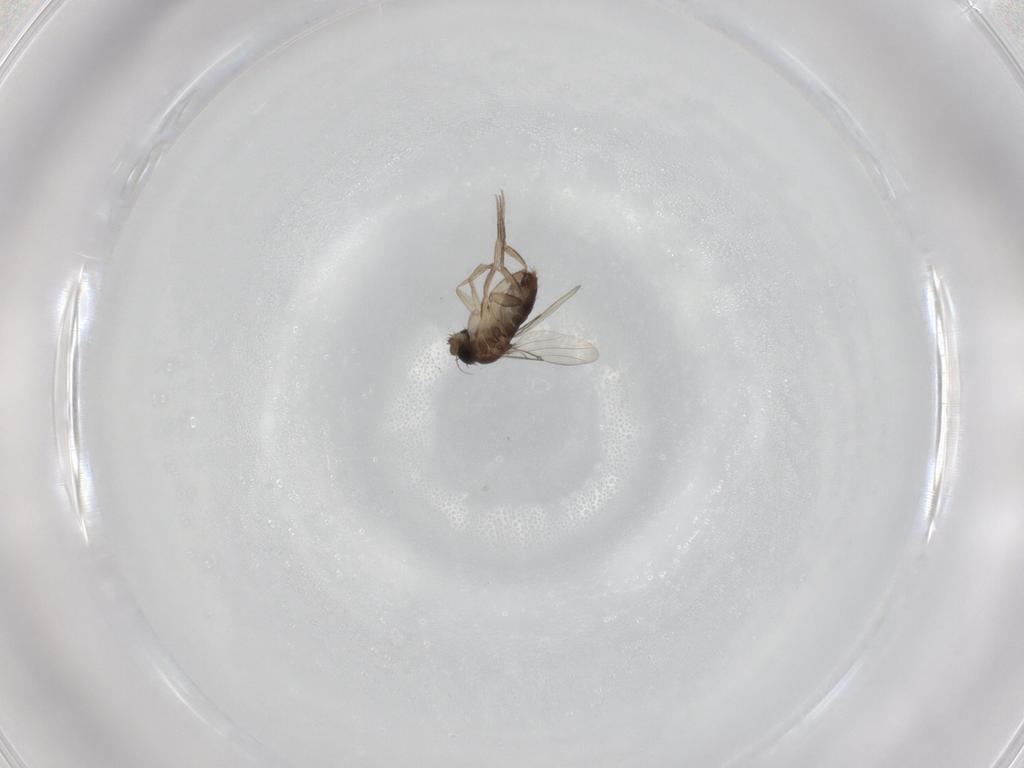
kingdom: Animalia
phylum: Arthropoda
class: Insecta
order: Diptera
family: Phoridae
